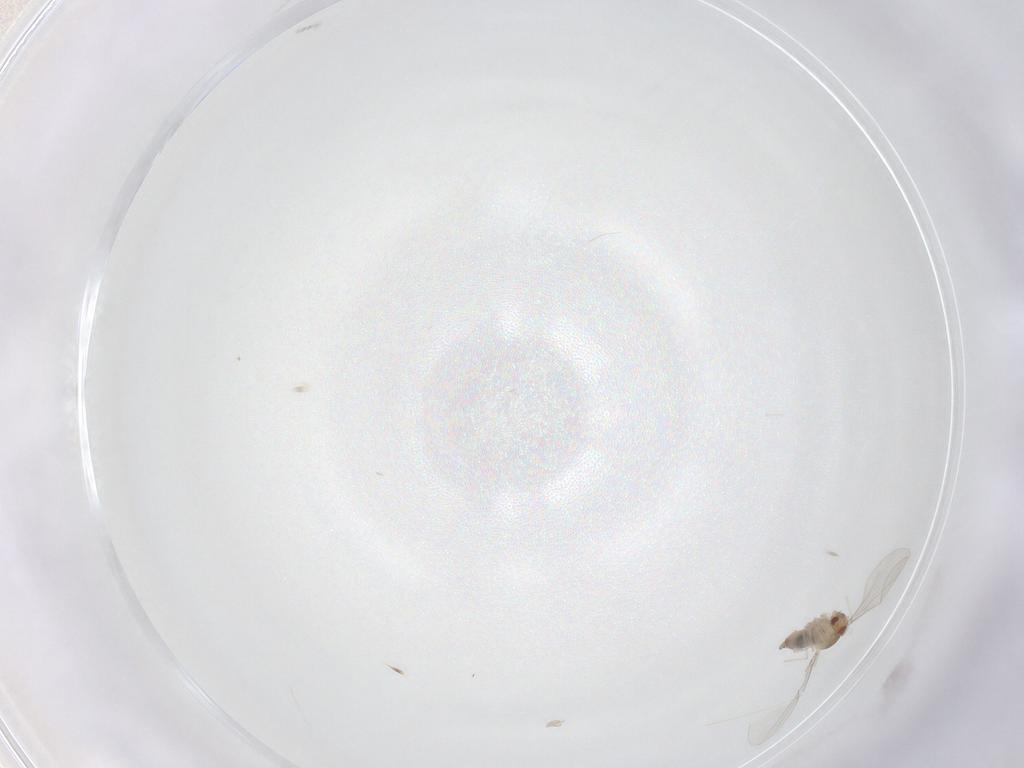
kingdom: Animalia
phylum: Arthropoda
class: Insecta
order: Diptera
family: Cecidomyiidae
